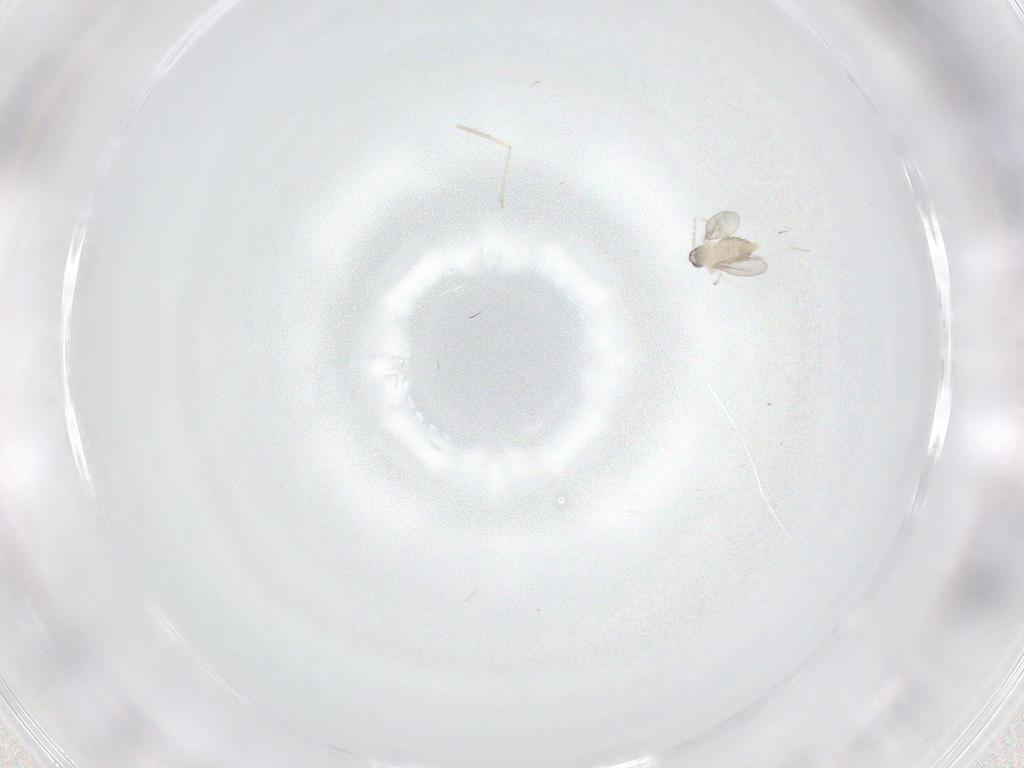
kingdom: Animalia
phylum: Arthropoda
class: Insecta
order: Diptera
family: Cecidomyiidae
